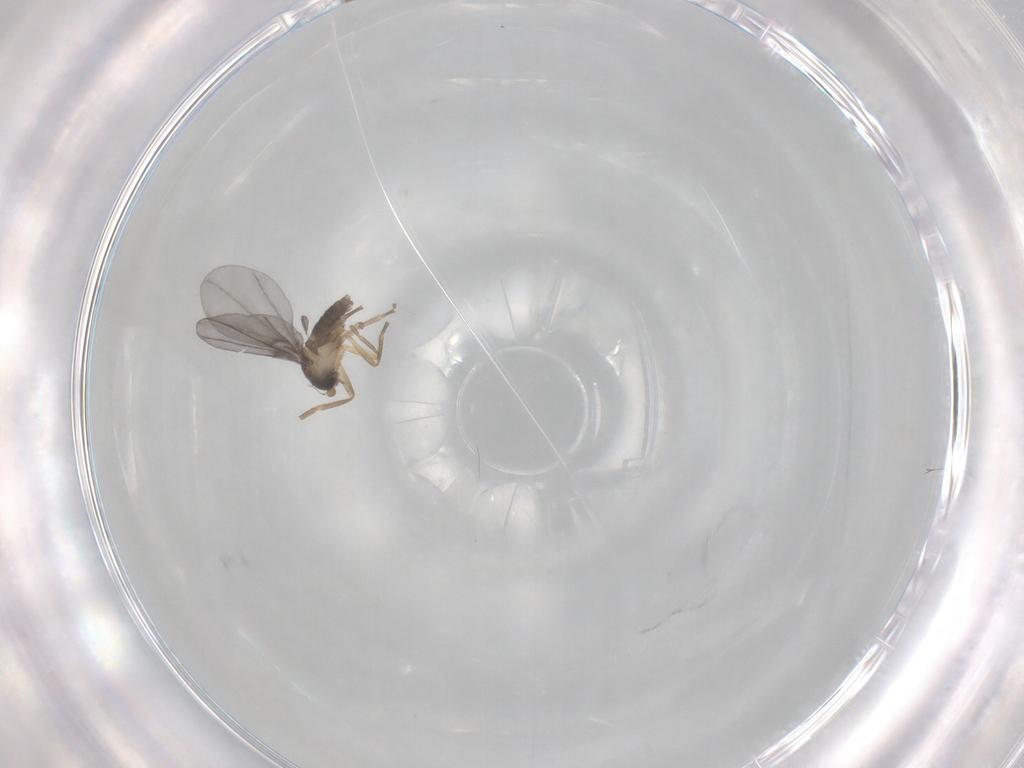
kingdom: Animalia
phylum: Arthropoda
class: Insecta
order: Diptera
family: Phoridae
